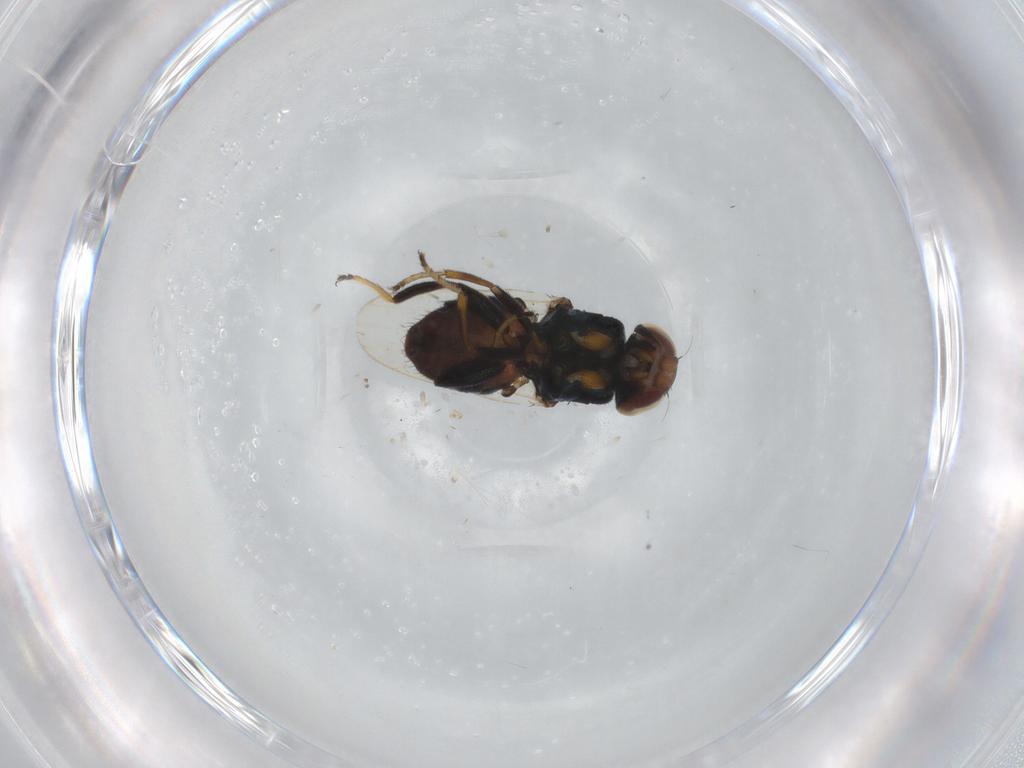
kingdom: Animalia
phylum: Arthropoda
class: Insecta
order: Diptera
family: Chloropidae
